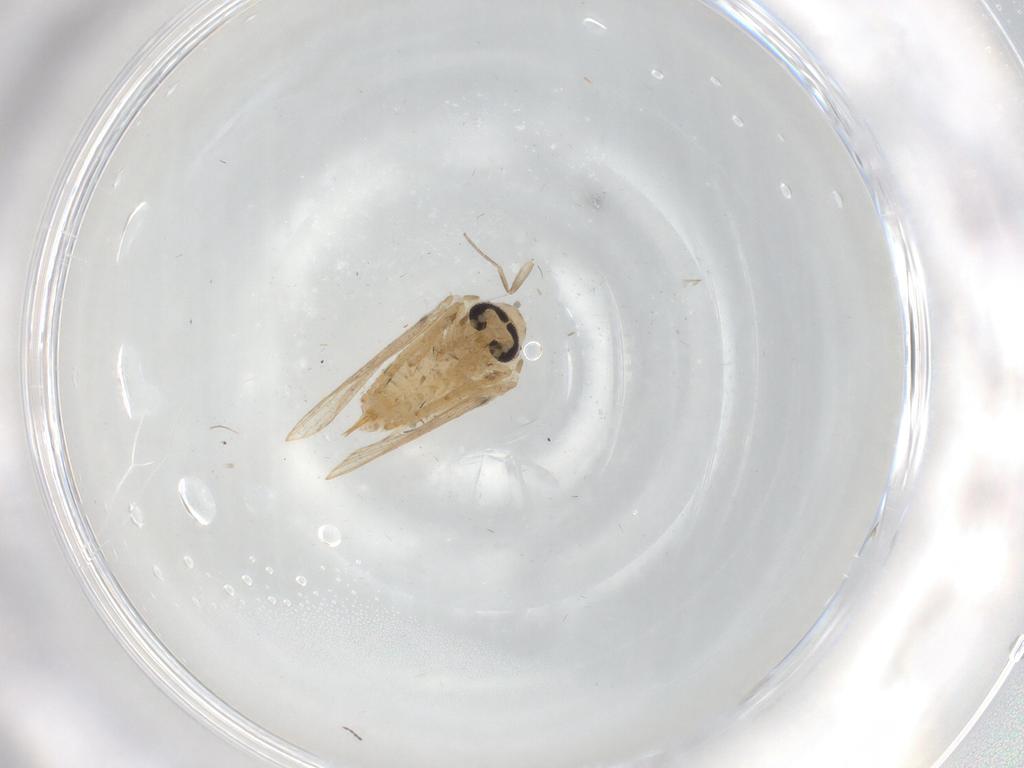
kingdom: Animalia
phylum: Arthropoda
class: Insecta
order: Diptera
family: Psychodidae
